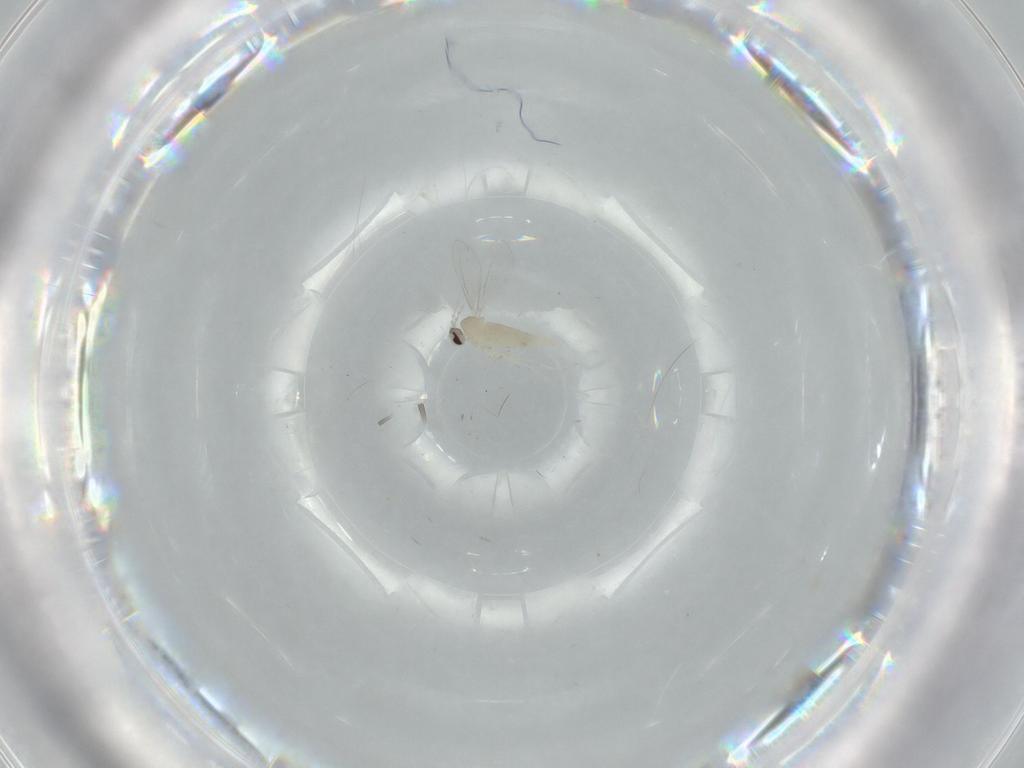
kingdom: Animalia
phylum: Arthropoda
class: Insecta
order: Diptera
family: Cecidomyiidae
